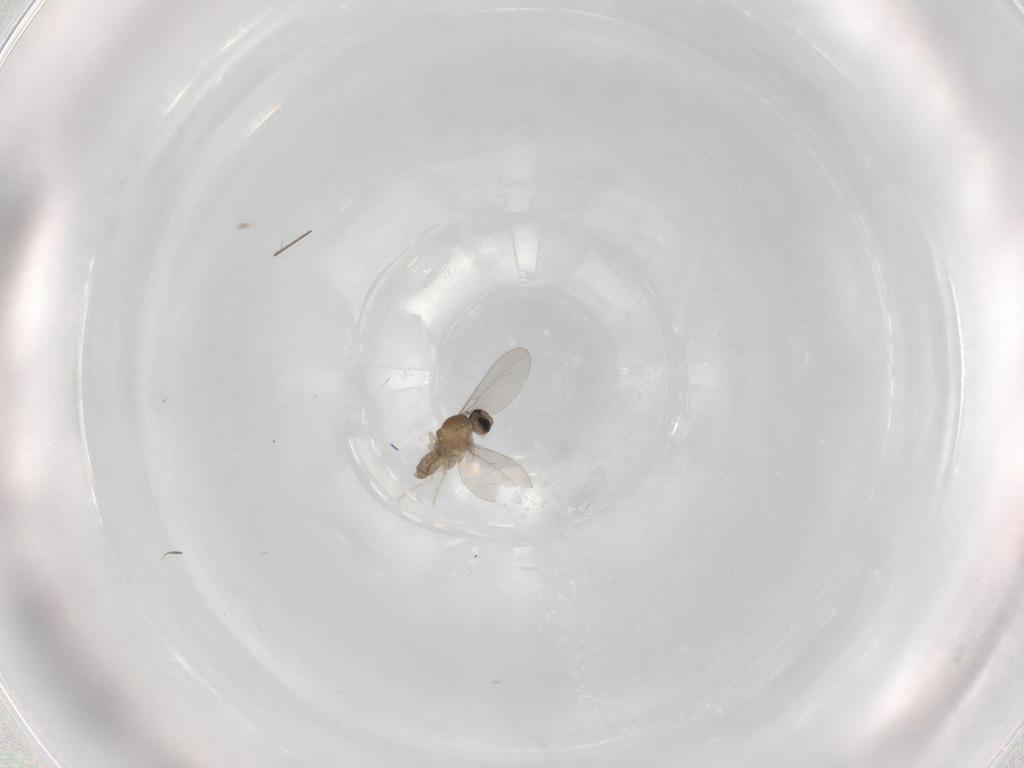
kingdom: Animalia
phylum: Arthropoda
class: Insecta
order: Diptera
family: Cecidomyiidae
